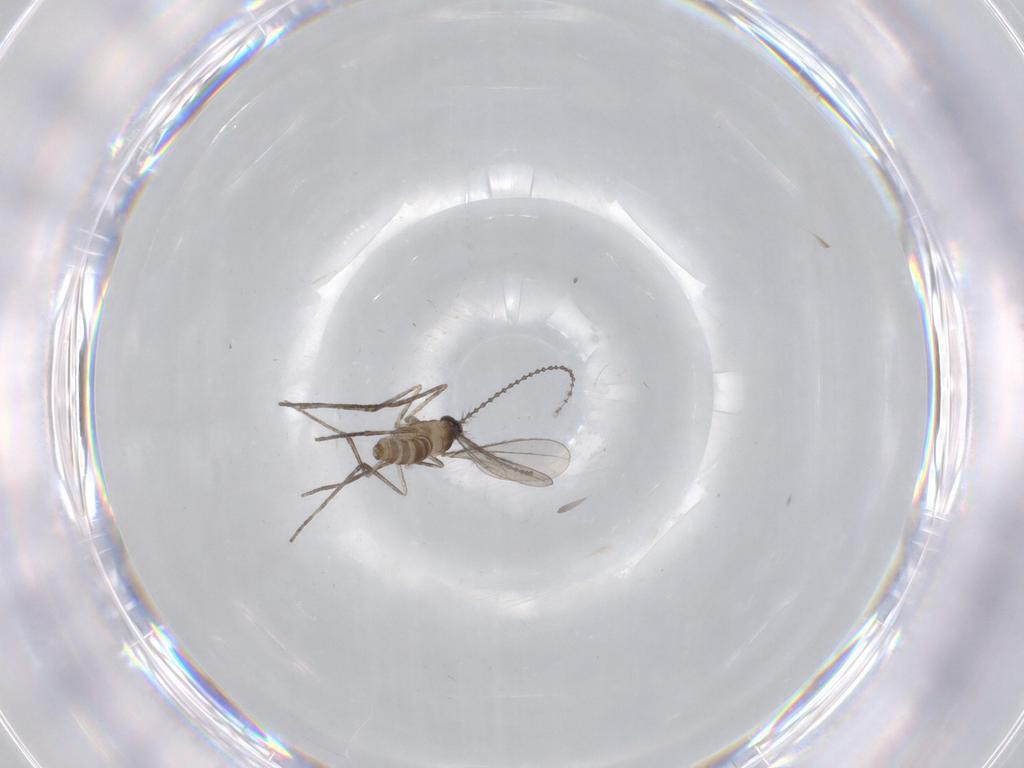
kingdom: Animalia
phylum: Arthropoda
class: Insecta
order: Diptera
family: Cecidomyiidae
